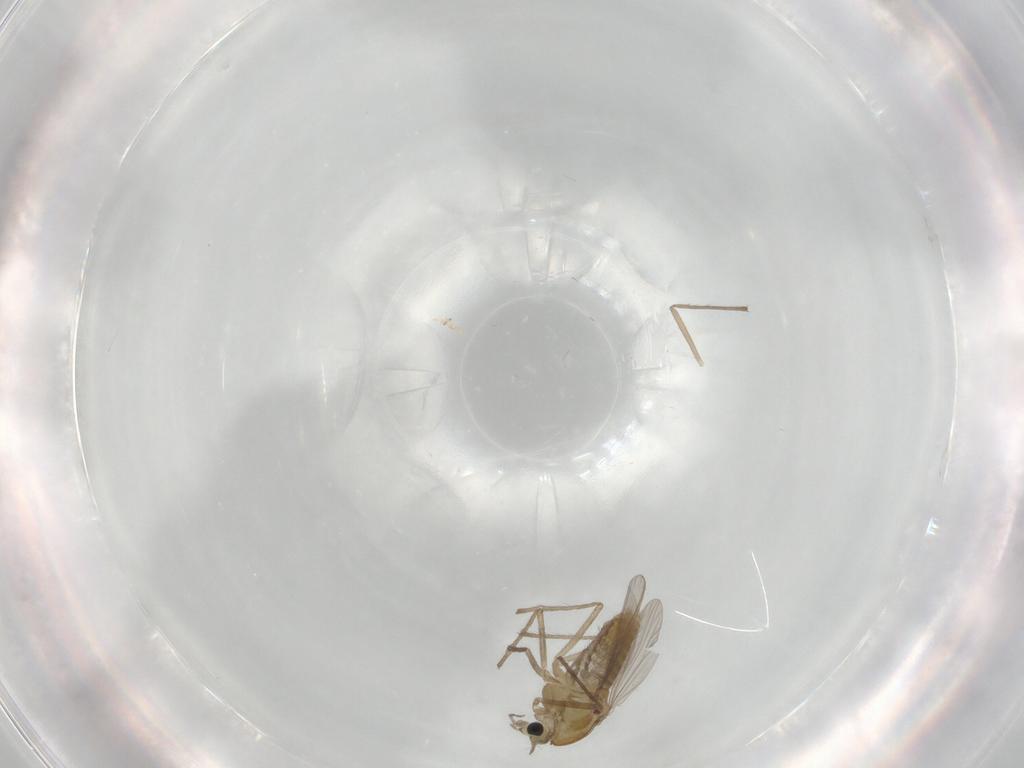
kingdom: Animalia
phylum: Arthropoda
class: Insecta
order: Diptera
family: Chironomidae
